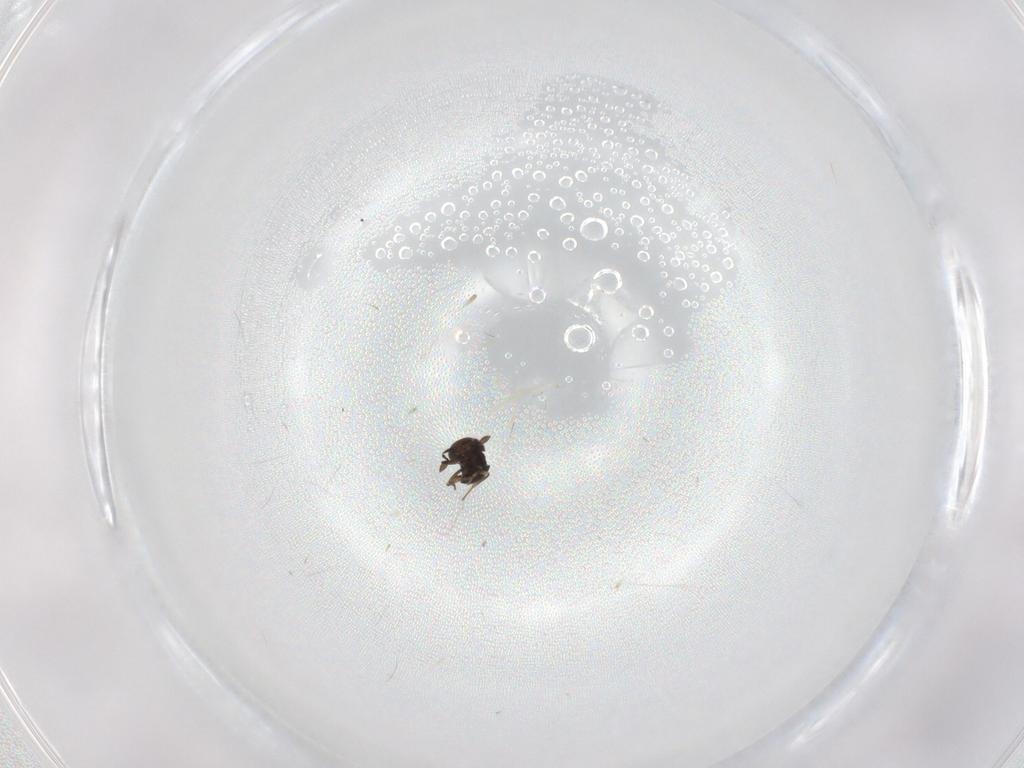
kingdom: Animalia
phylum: Arthropoda
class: Insecta
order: Hymenoptera
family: Scelionidae
